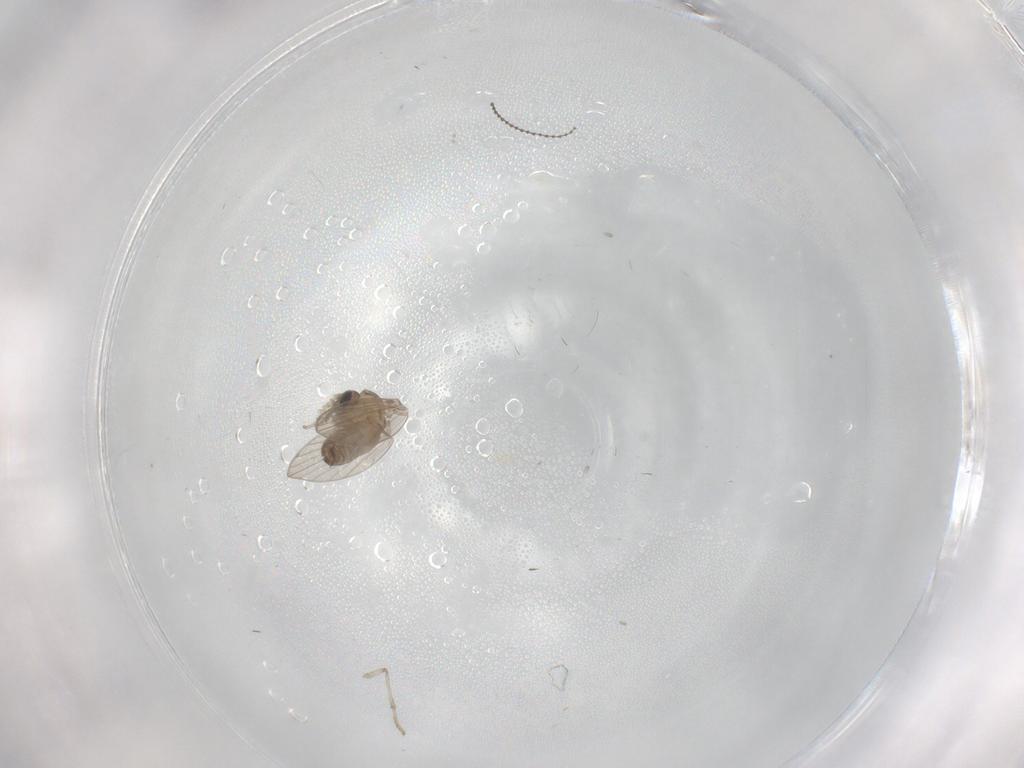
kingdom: Animalia
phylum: Arthropoda
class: Insecta
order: Diptera
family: Psychodidae
